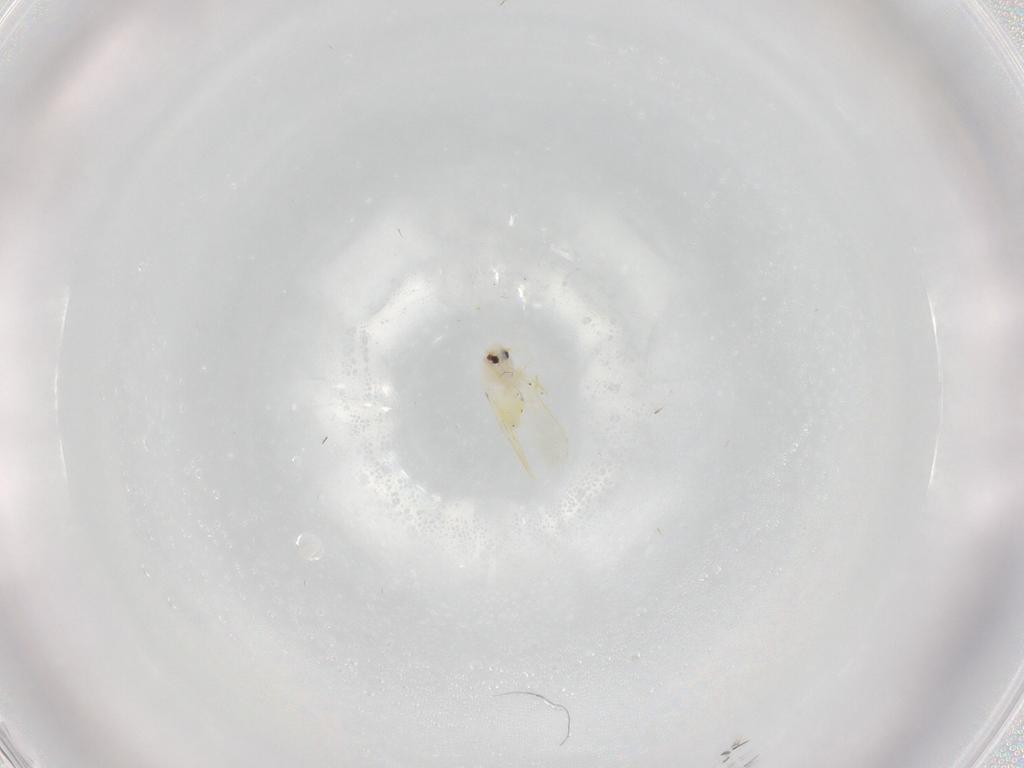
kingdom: Animalia
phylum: Arthropoda
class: Insecta
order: Hemiptera
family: Aleyrodidae
